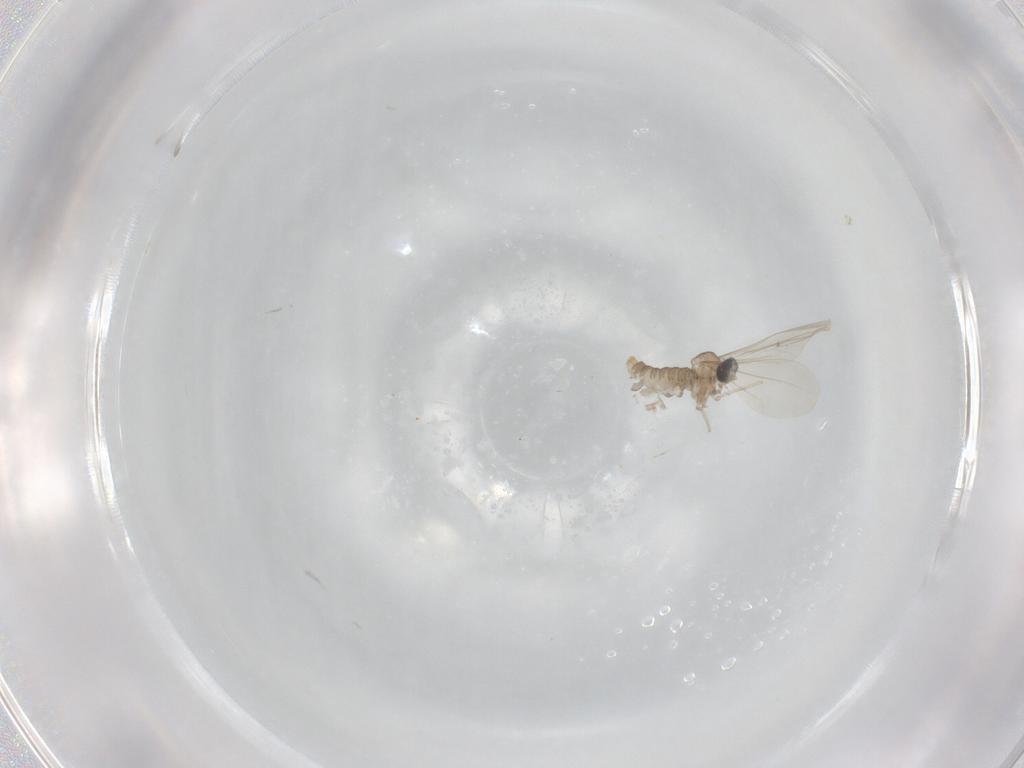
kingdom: Animalia
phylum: Arthropoda
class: Insecta
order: Diptera
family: Cecidomyiidae
